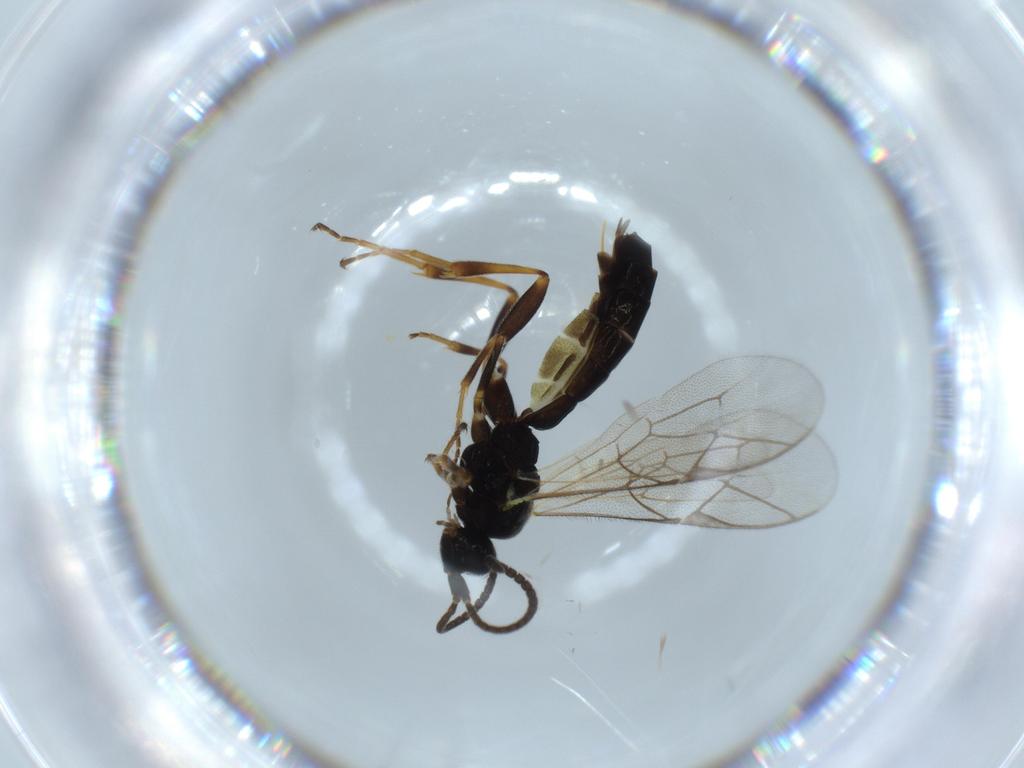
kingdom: Animalia
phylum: Arthropoda
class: Insecta
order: Hymenoptera
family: Ichneumonidae
